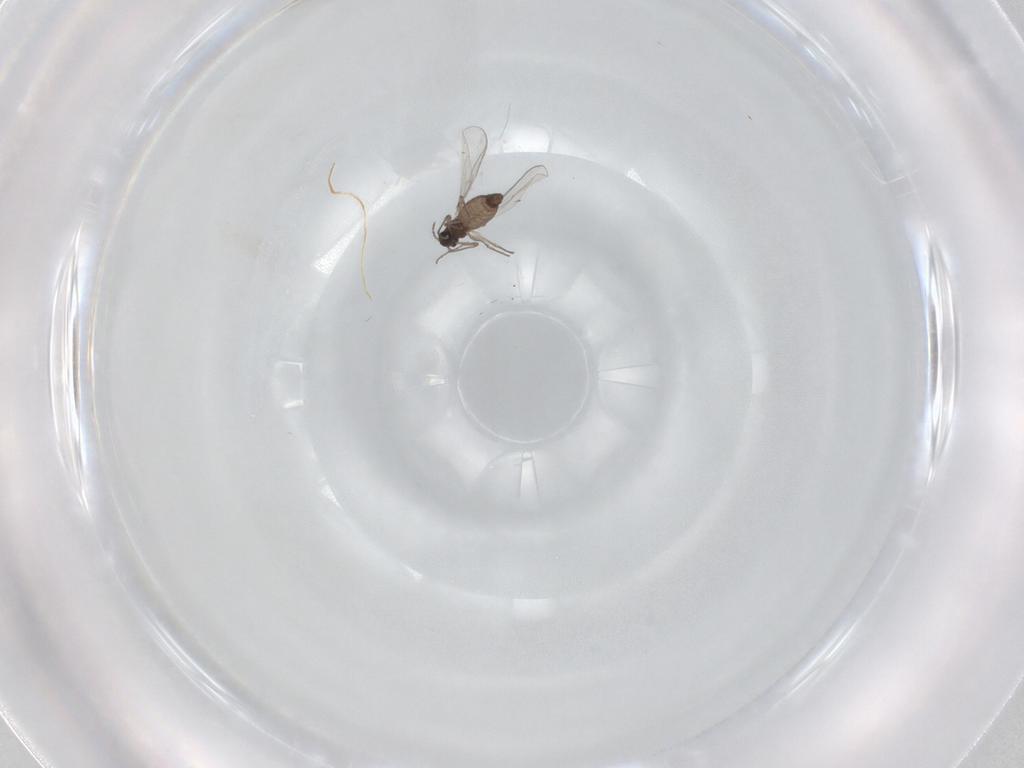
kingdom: Animalia
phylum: Arthropoda
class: Insecta
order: Diptera
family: Chironomidae
